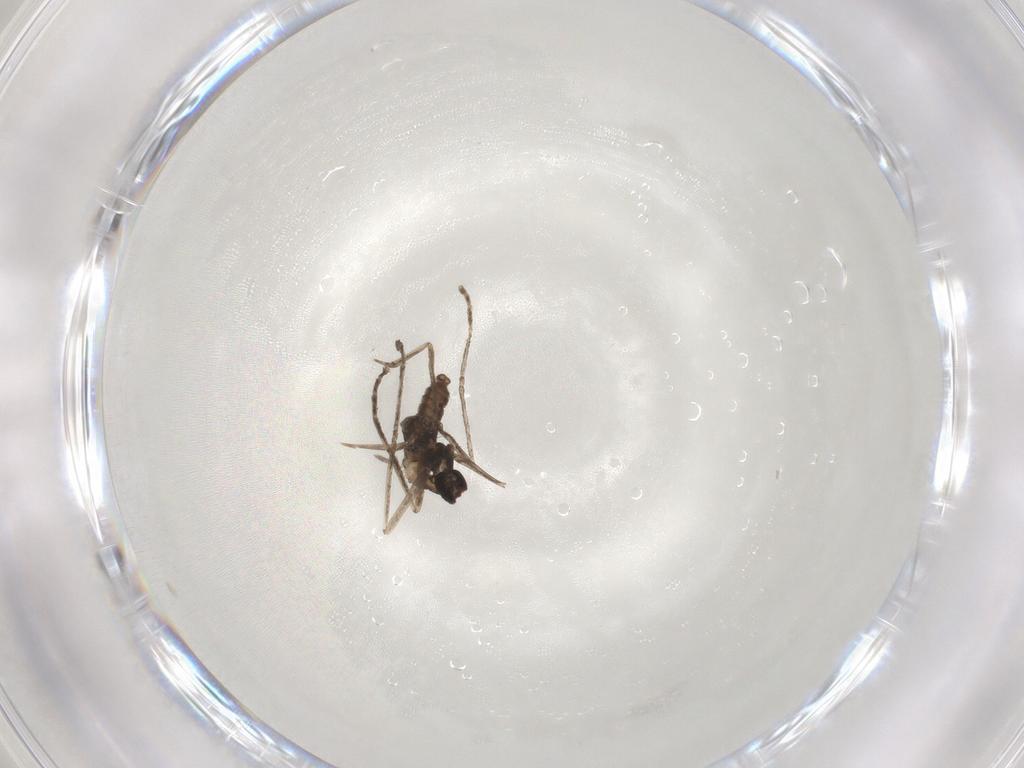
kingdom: Animalia
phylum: Arthropoda
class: Insecta
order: Diptera
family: Cecidomyiidae
